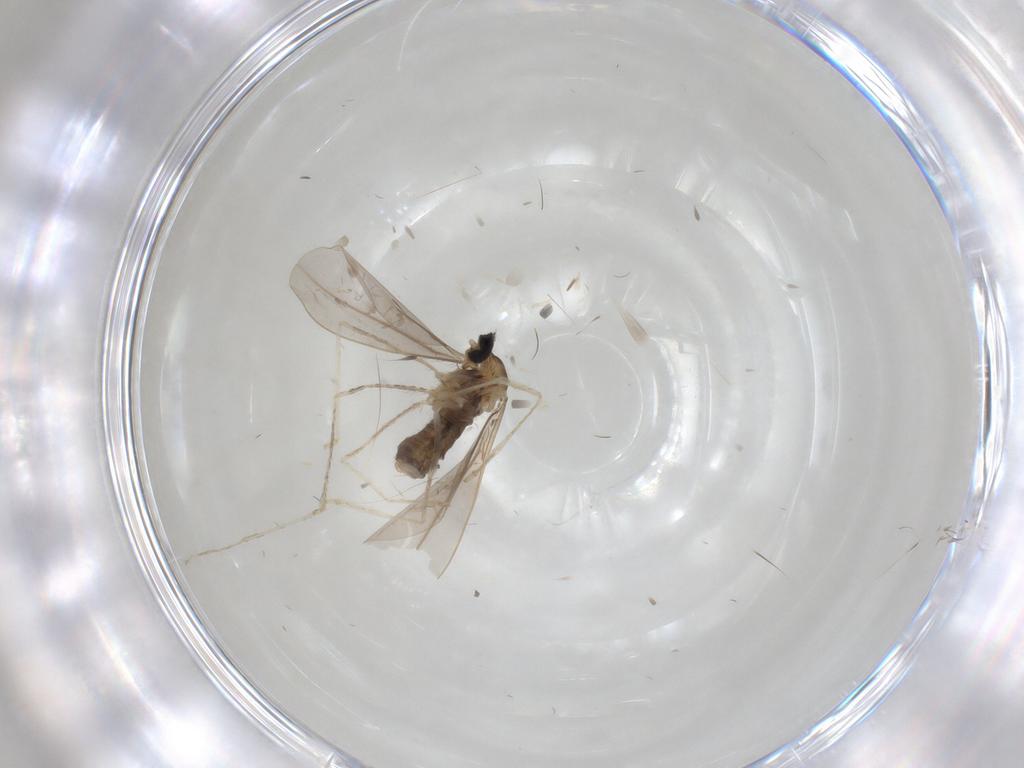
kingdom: Animalia
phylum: Arthropoda
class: Insecta
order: Diptera
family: Cecidomyiidae
